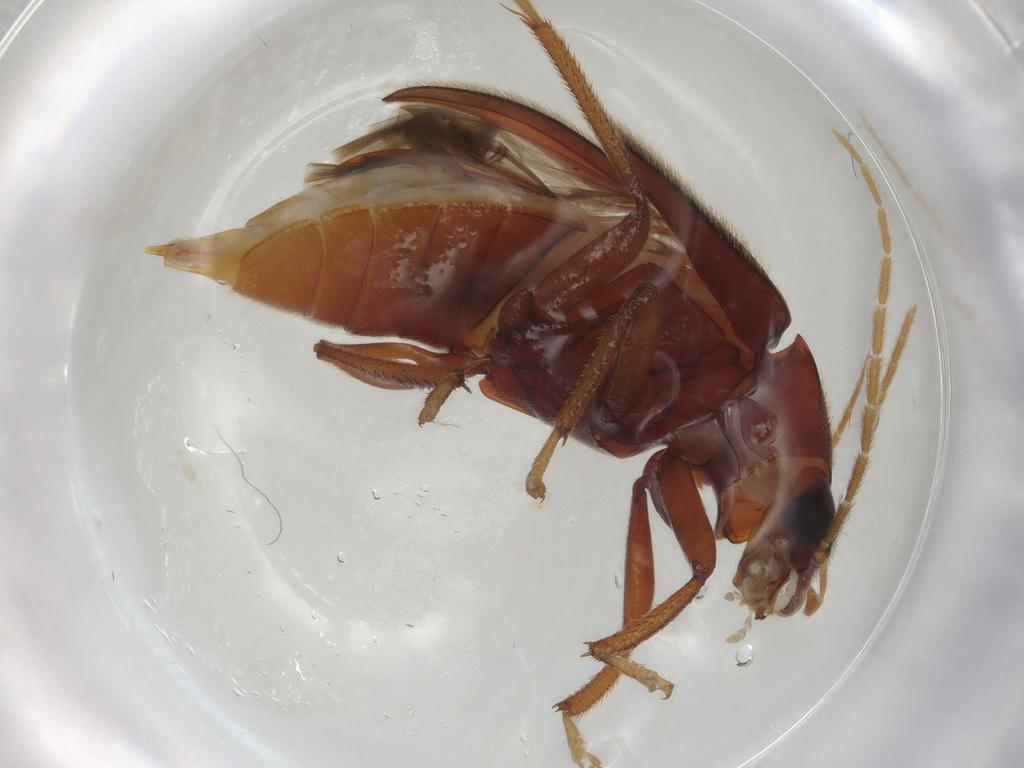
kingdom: Animalia
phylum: Arthropoda
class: Insecta
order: Coleoptera
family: Ptilodactylidae
